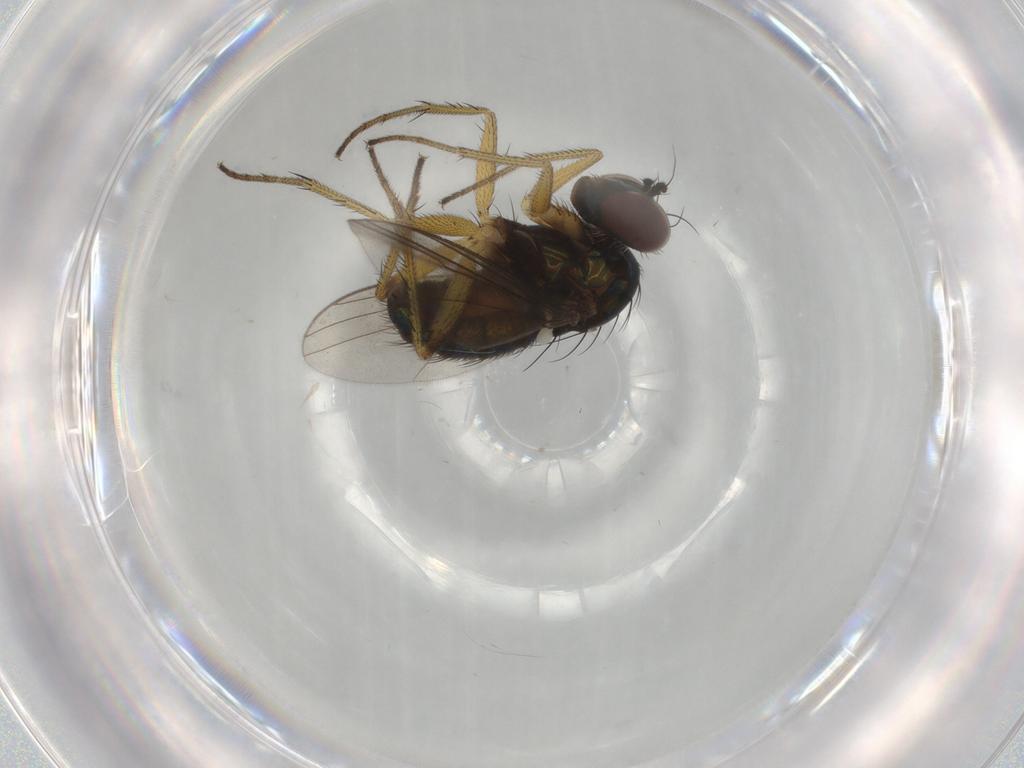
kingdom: Animalia
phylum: Arthropoda
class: Insecta
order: Diptera
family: Dolichopodidae
